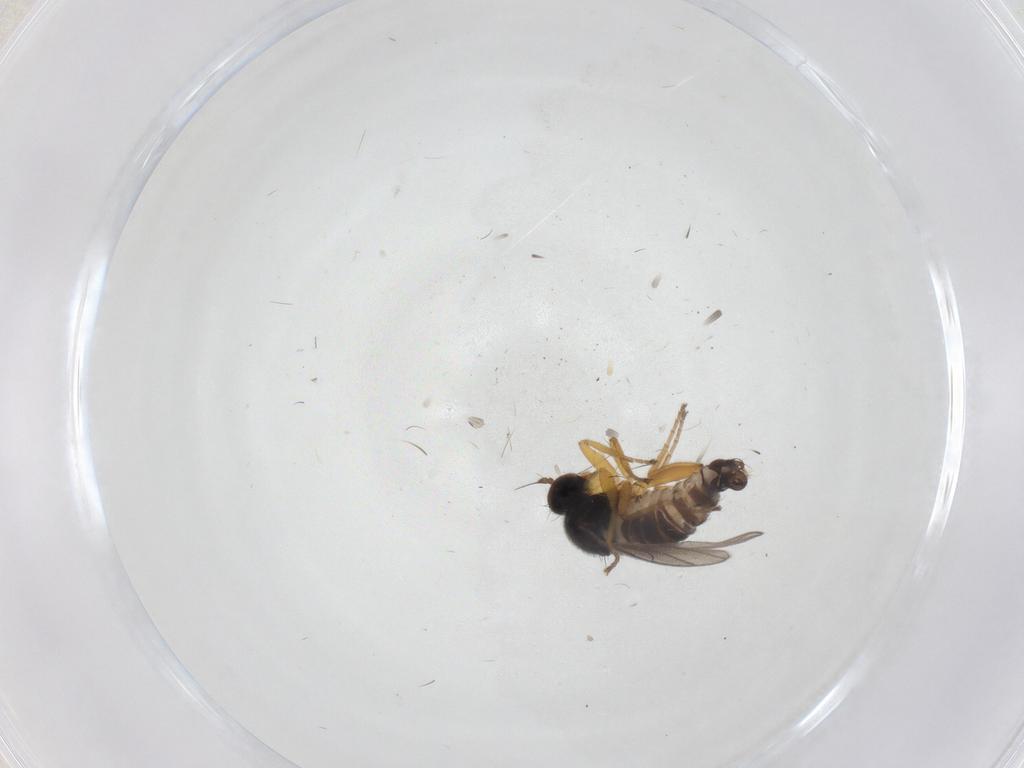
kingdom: Animalia
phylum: Arthropoda
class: Insecta
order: Diptera
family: Hybotidae
